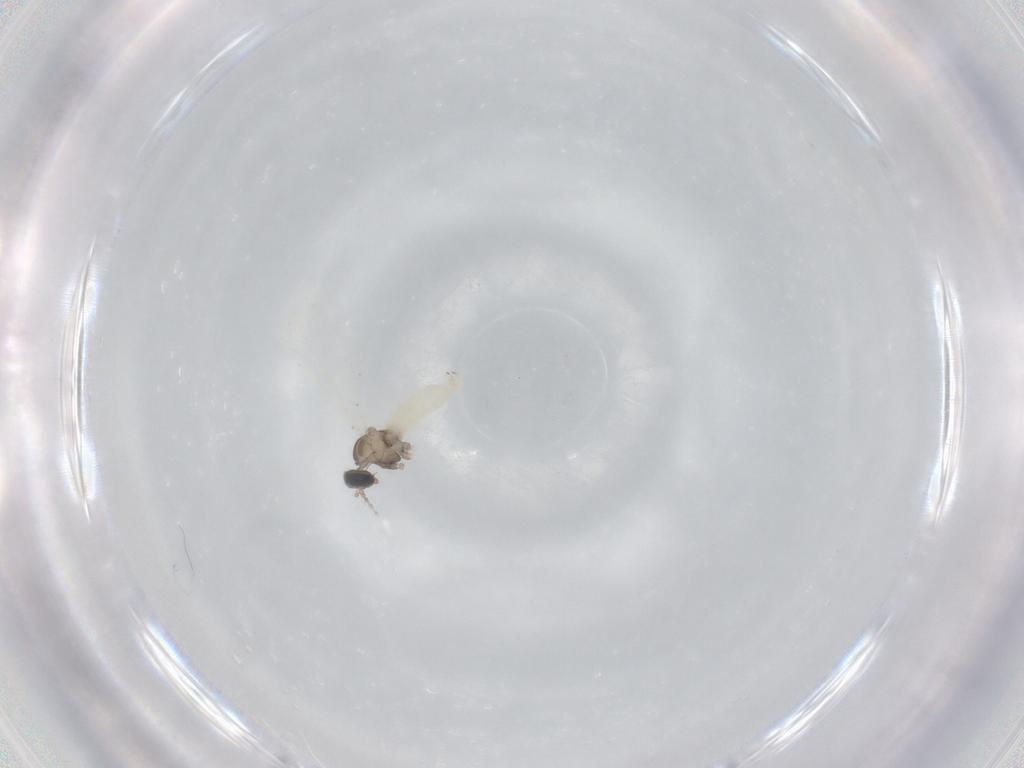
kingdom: Animalia
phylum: Arthropoda
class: Insecta
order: Diptera
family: Cecidomyiidae
